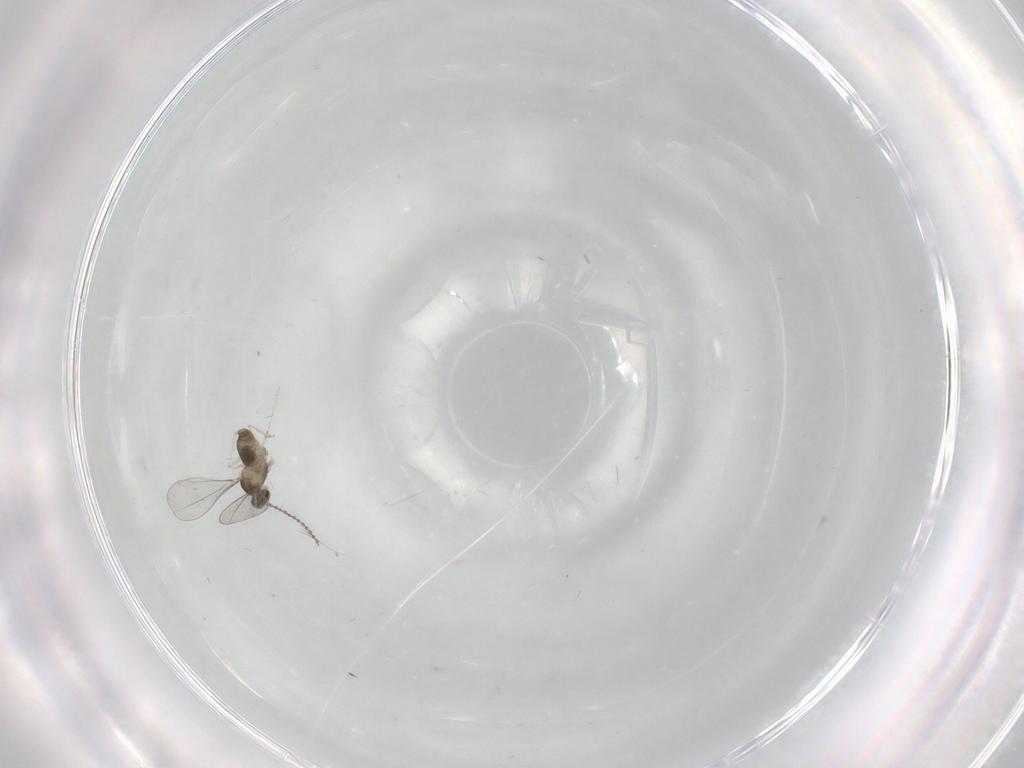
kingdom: Animalia
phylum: Arthropoda
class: Insecta
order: Diptera
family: Cecidomyiidae
